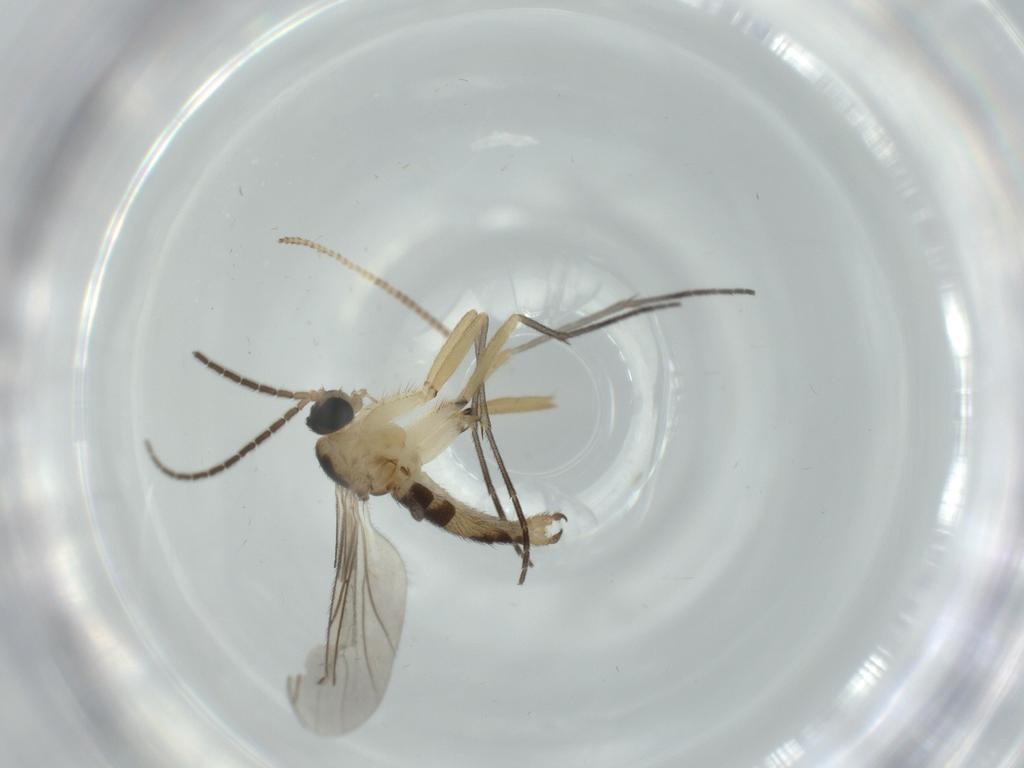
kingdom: Animalia
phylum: Arthropoda
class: Insecta
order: Diptera
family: Sciaridae
